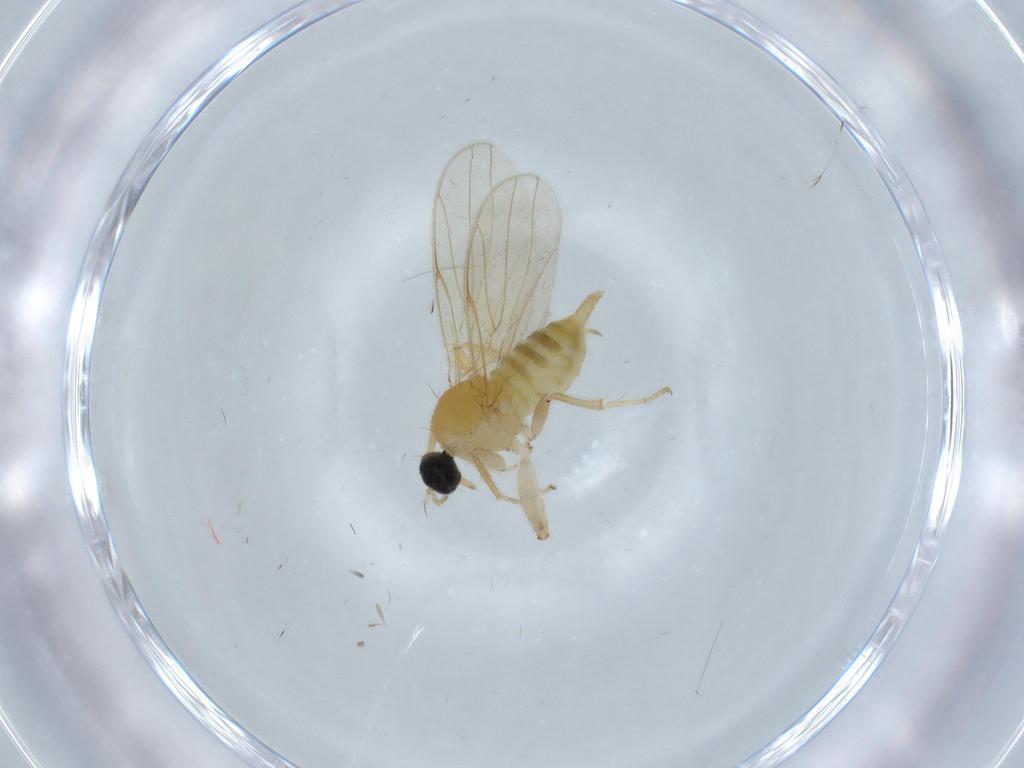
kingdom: Animalia
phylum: Arthropoda
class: Insecta
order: Diptera
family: Hybotidae
